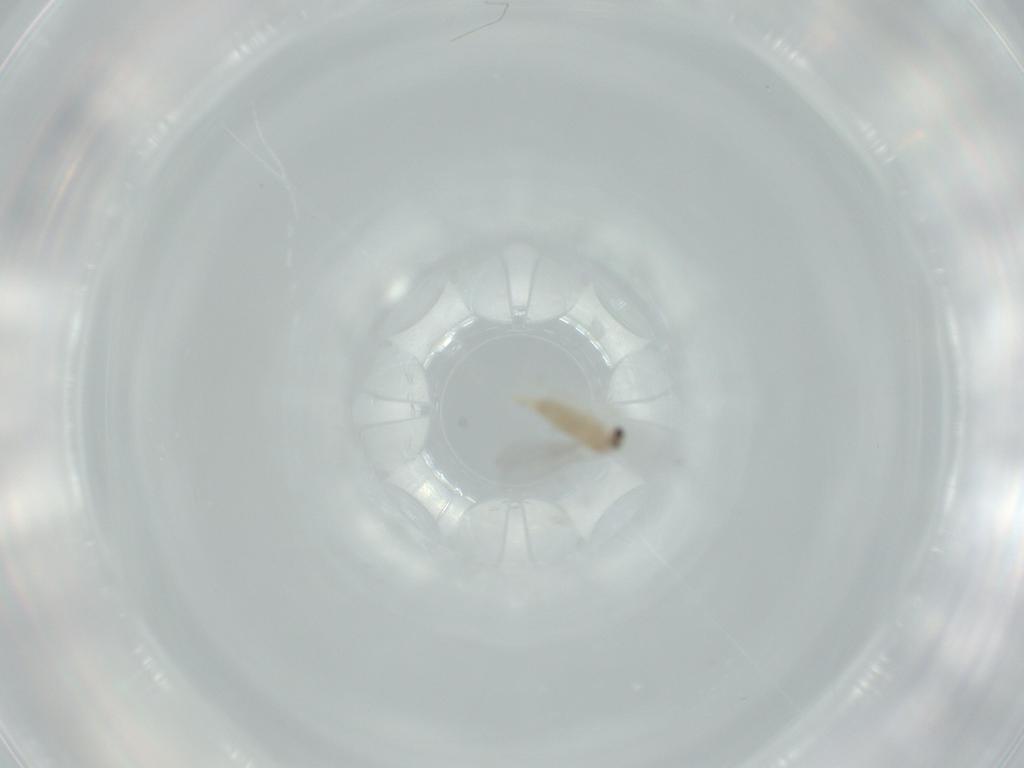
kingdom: Animalia
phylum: Arthropoda
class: Insecta
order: Diptera
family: Cecidomyiidae
